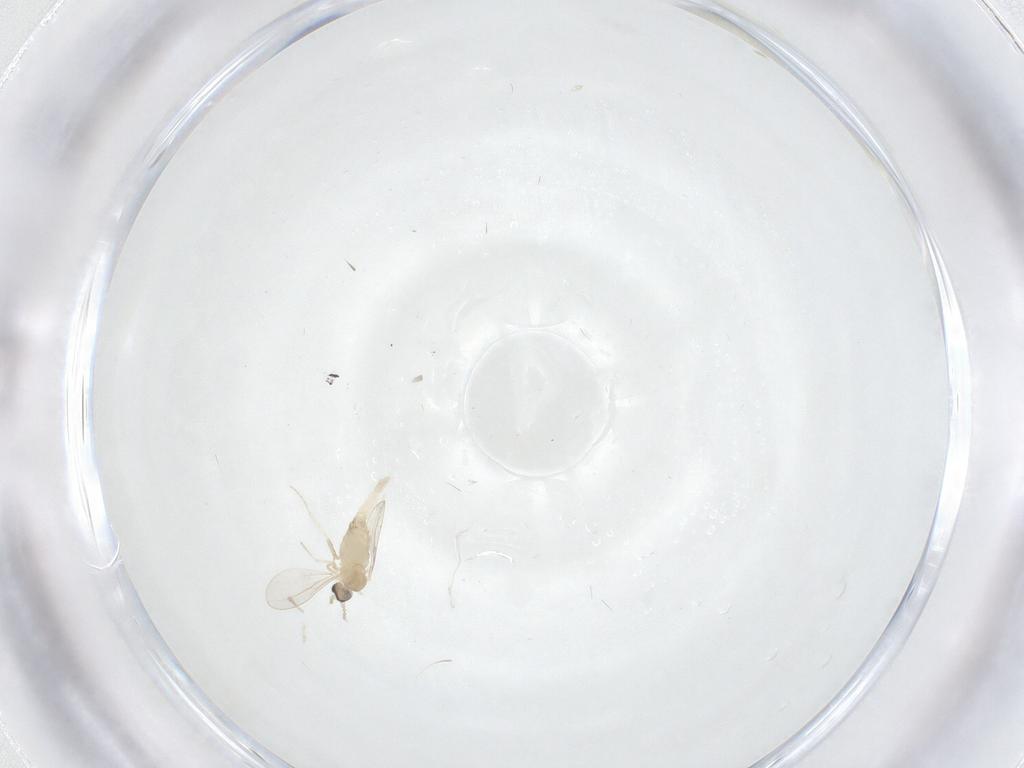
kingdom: Animalia
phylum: Arthropoda
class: Insecta
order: Diptera
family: Cecidomyiidae
